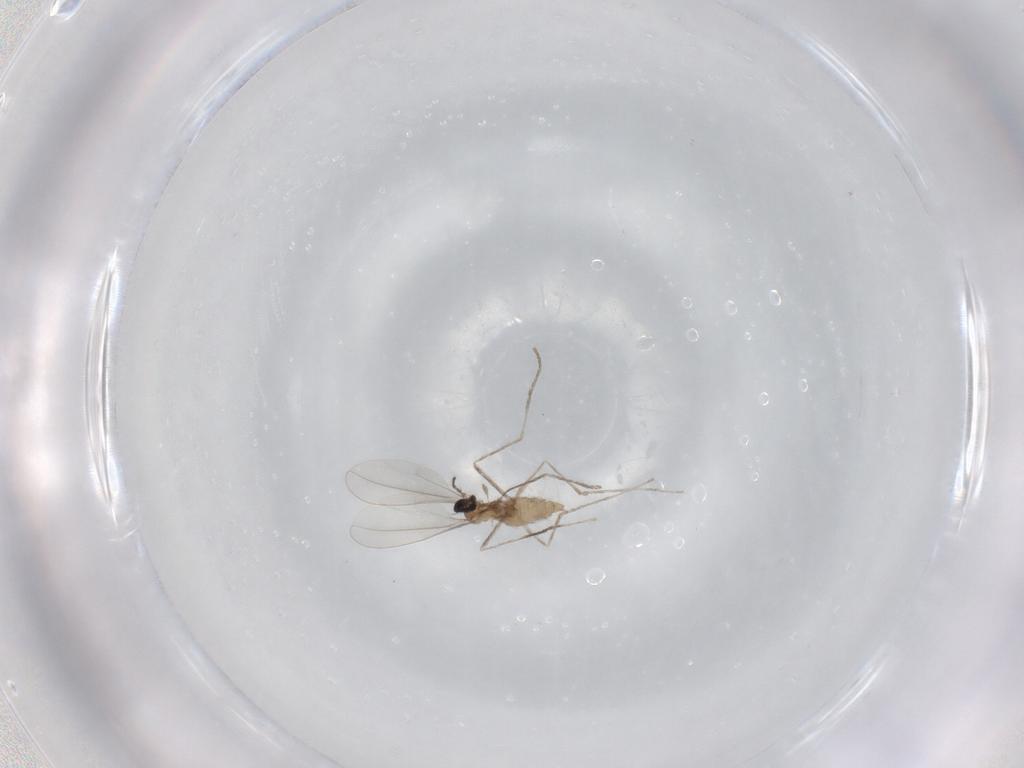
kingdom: Animalia
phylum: Arthropoda
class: Insecta
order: Diptera
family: Cecidomyiidae
